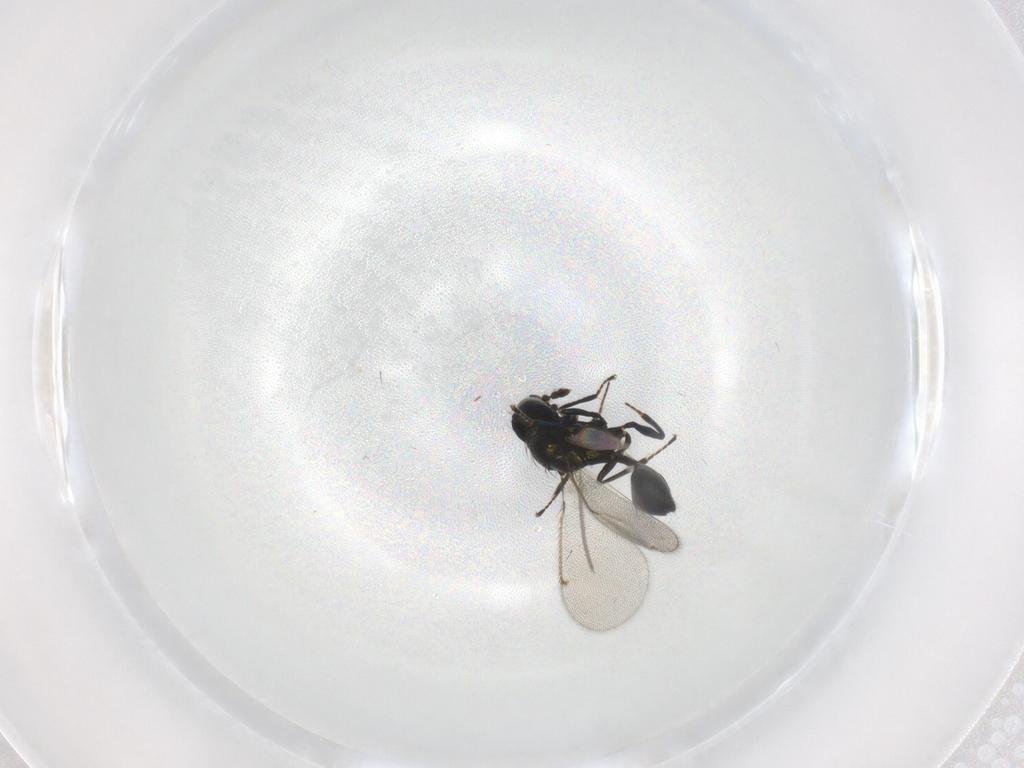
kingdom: Animalia
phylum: Arthropoda
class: Insecta
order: Hymenoptera
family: Eulophidae
